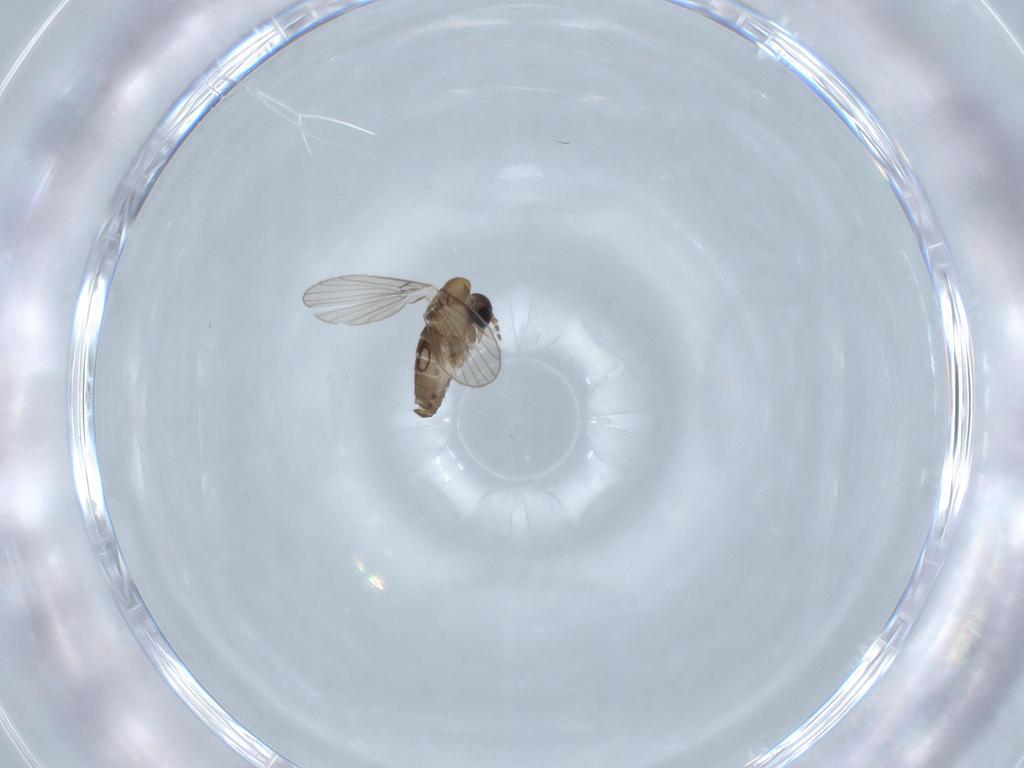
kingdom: Animalia
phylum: Arthropoda
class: Insecta
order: Diptera
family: Psychodidae
